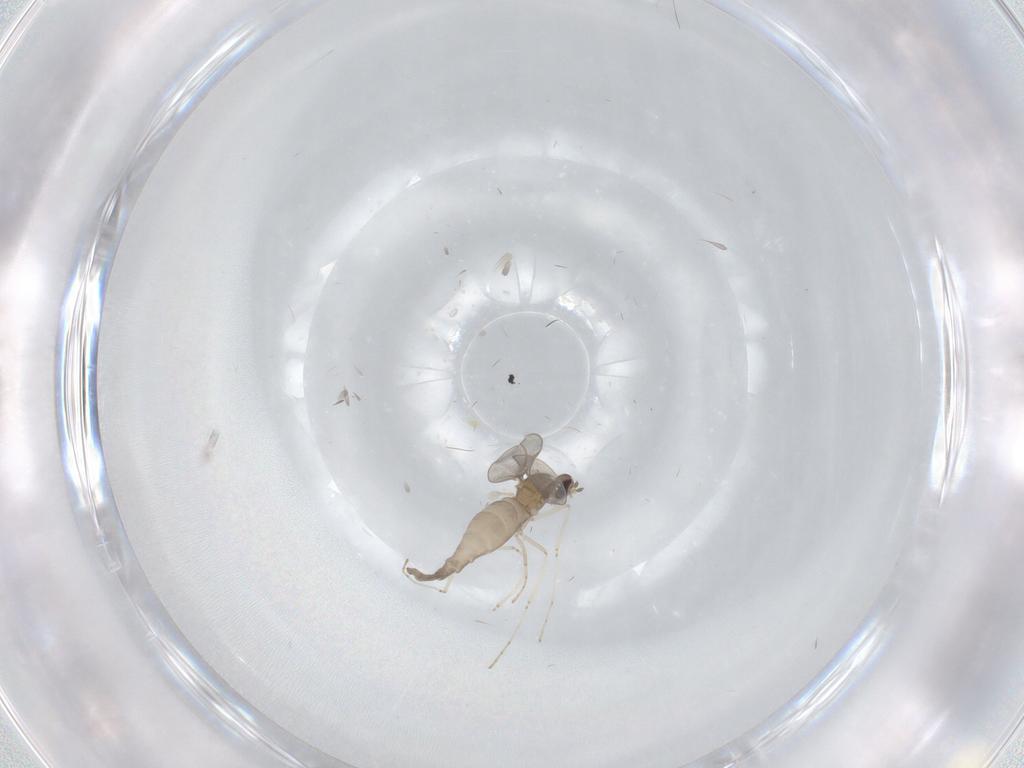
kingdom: Animalia
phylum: Arthropoda
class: Insecta
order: Diptera
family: Cecidomyiidae
